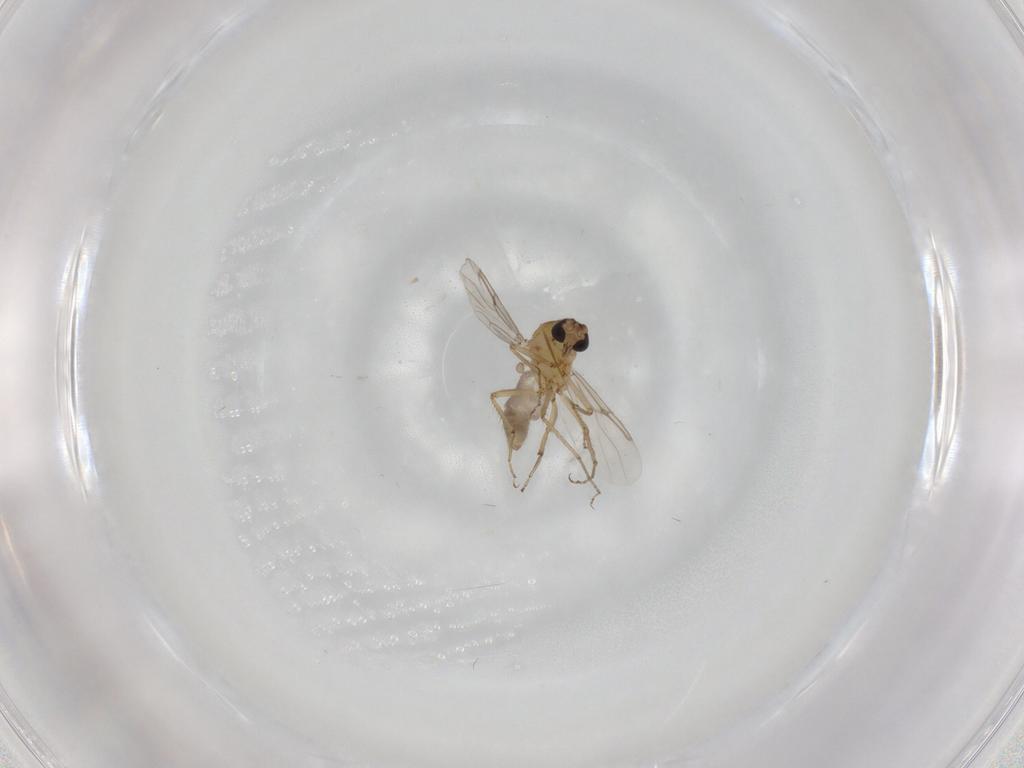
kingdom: Animalia
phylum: Arthropoda
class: Insecta
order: Diptera
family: Ceratopogonidae
